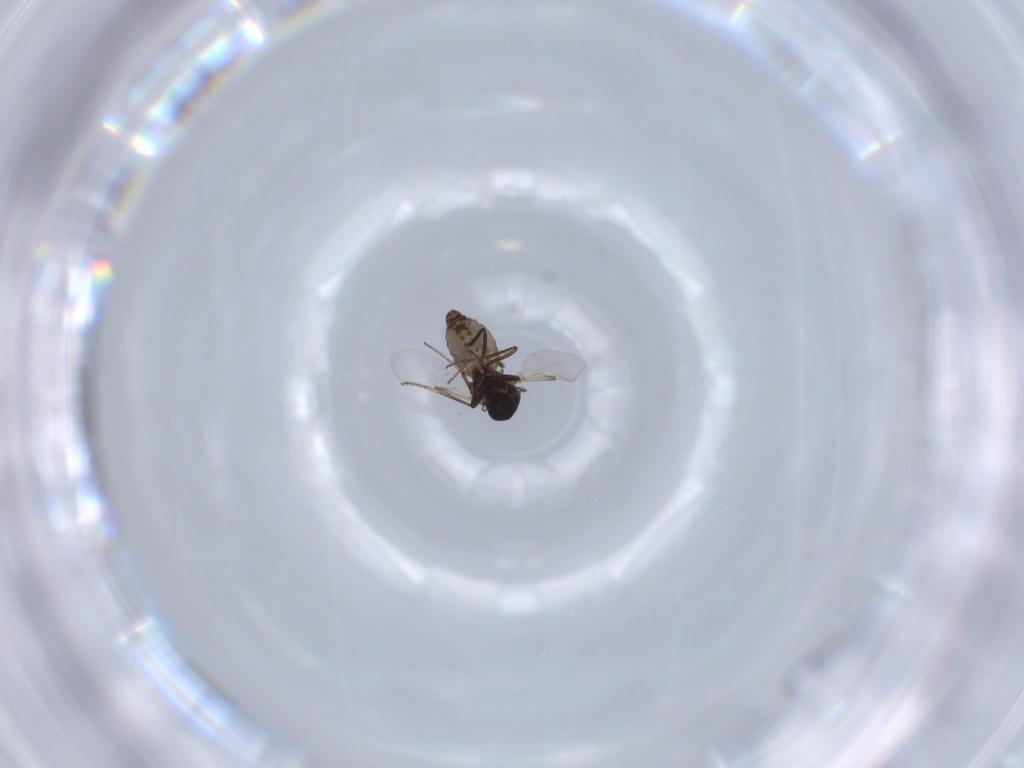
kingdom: Animalia
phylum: Arthropoda
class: Insecta
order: Diptera
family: Ceratopogonidae
